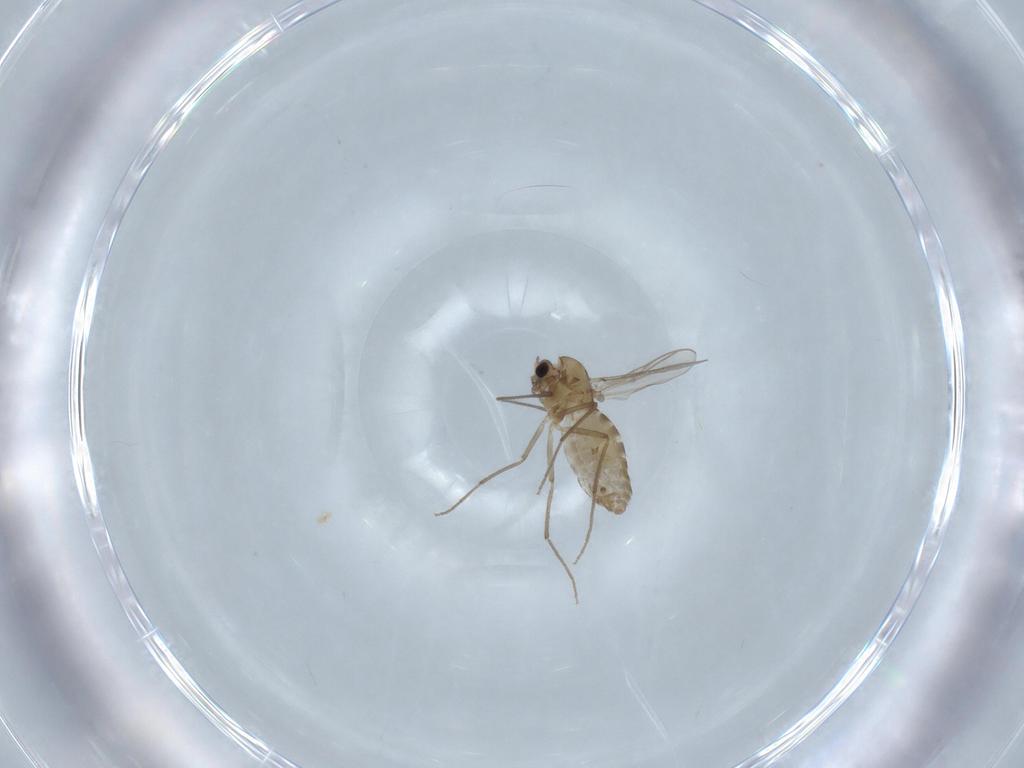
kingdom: Animalia
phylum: Arthropoda
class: Insecta
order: Diptera
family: Chironomidae
